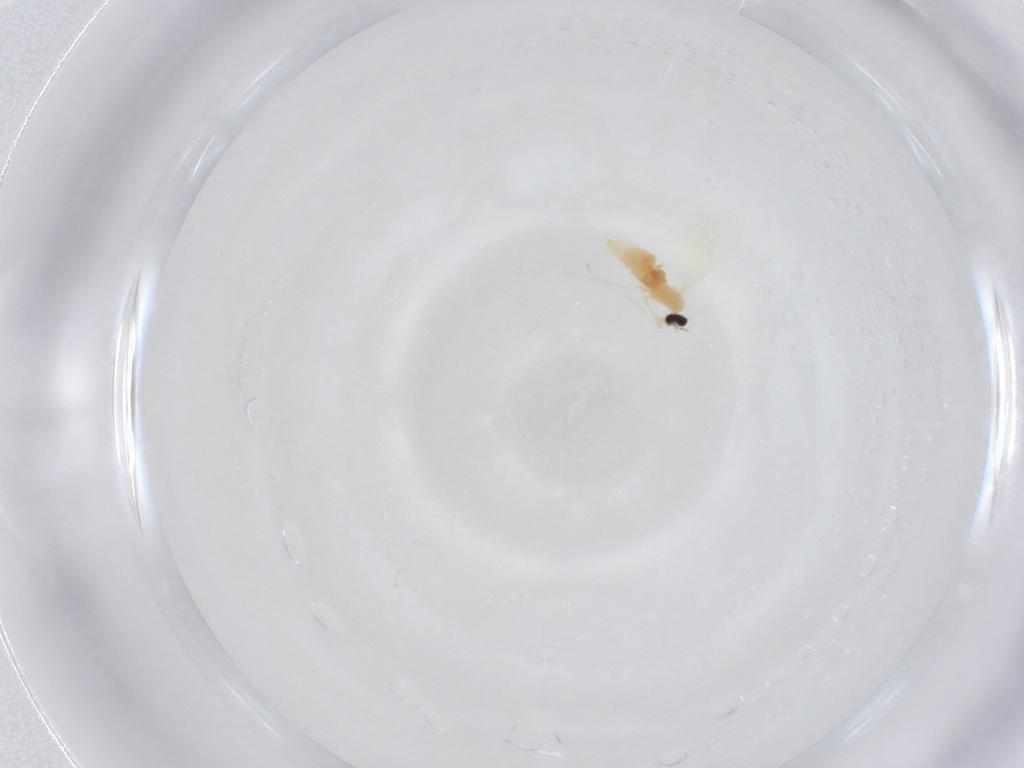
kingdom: Animalia
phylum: Arthropoda
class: Insecta
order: Diptera
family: Cecidomyiidae
